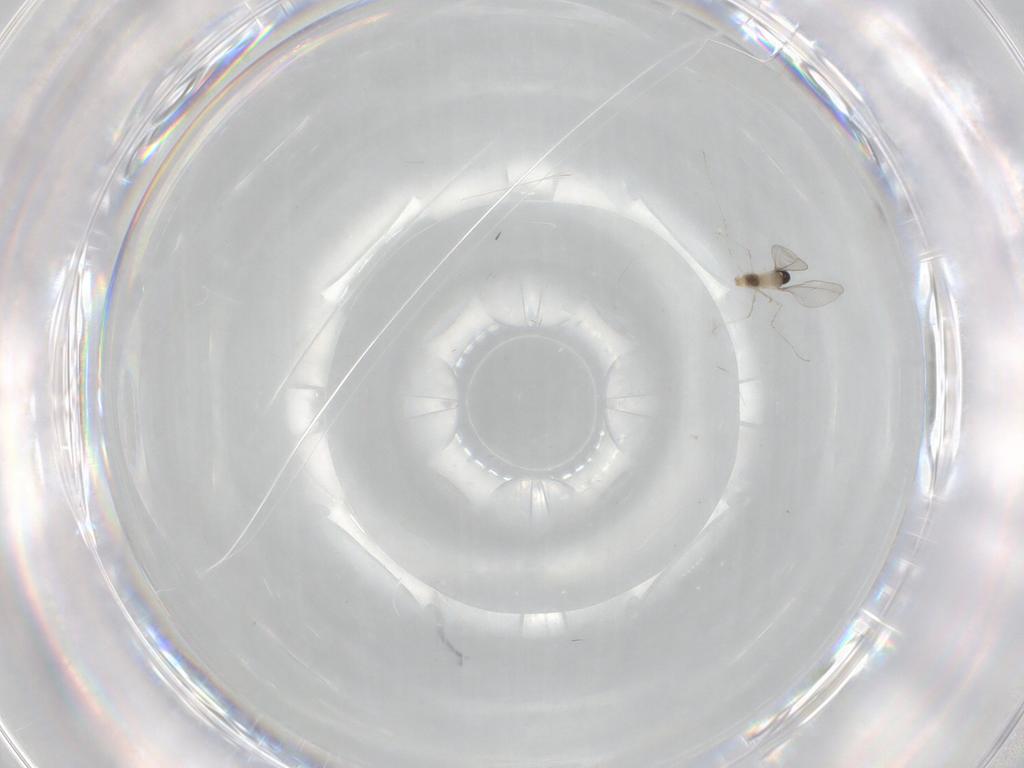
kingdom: Animalia
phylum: Arthropoda
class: Insecta
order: Diptera
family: Cecidomyiidae
